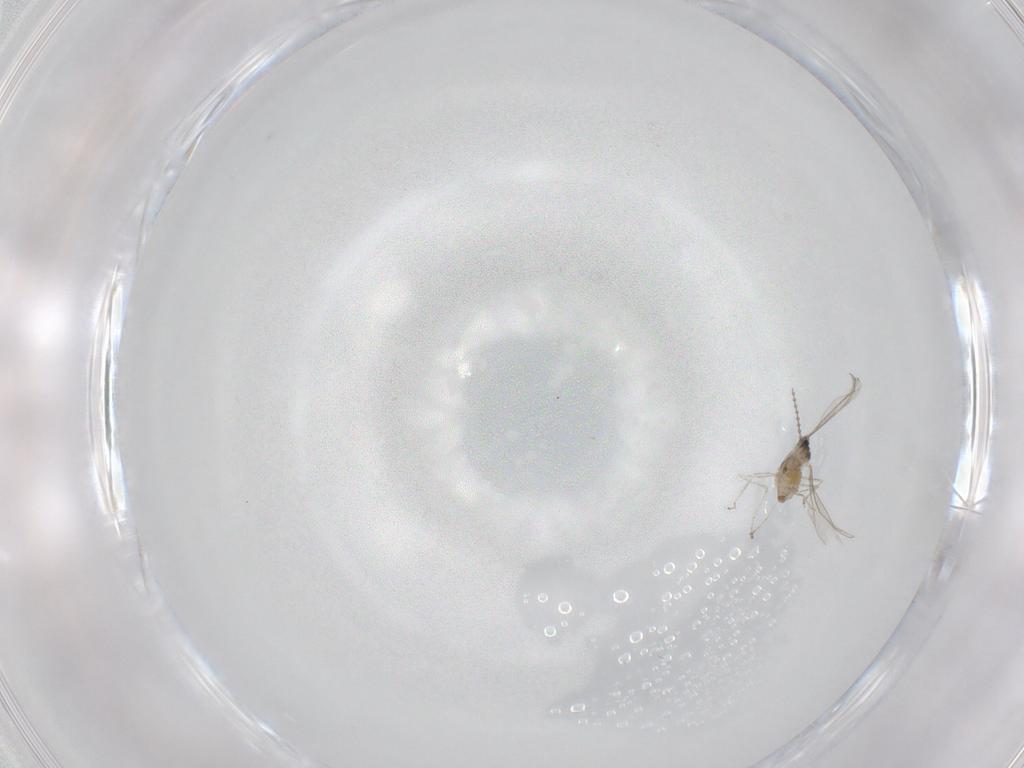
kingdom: Animalia
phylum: Arthropoda
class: Insecta
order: Diptera
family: Cecidomyiidae
